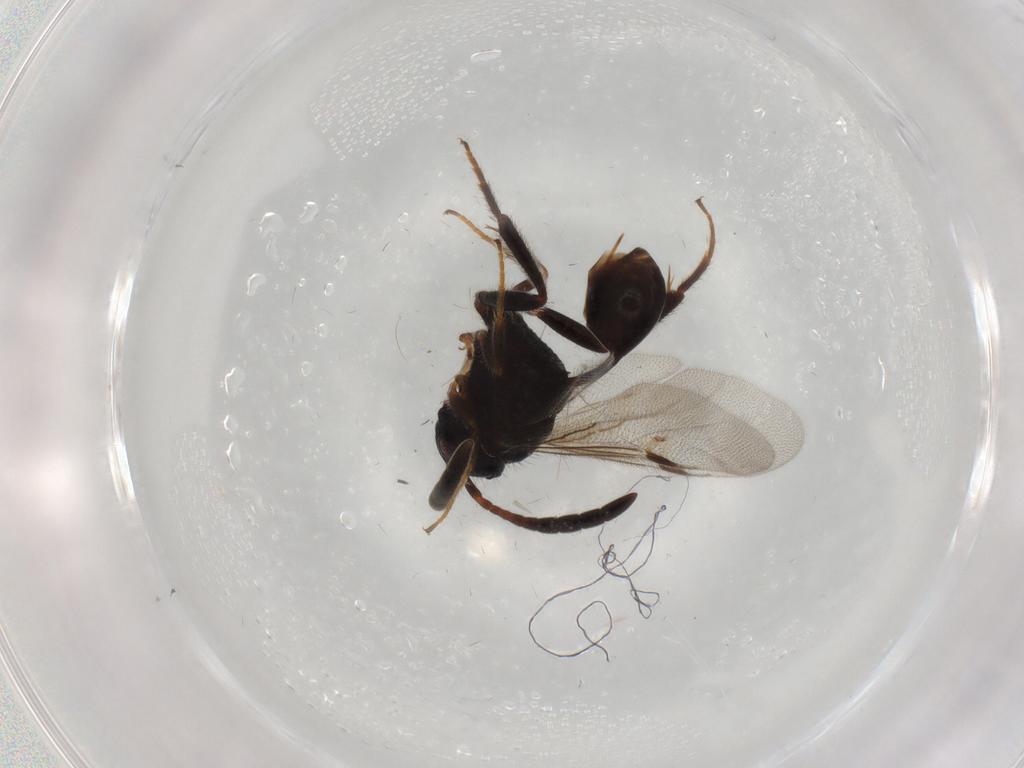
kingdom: Animalia
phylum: Arthropoda
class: Insecta
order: Hymenoptera
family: Evaniidae
